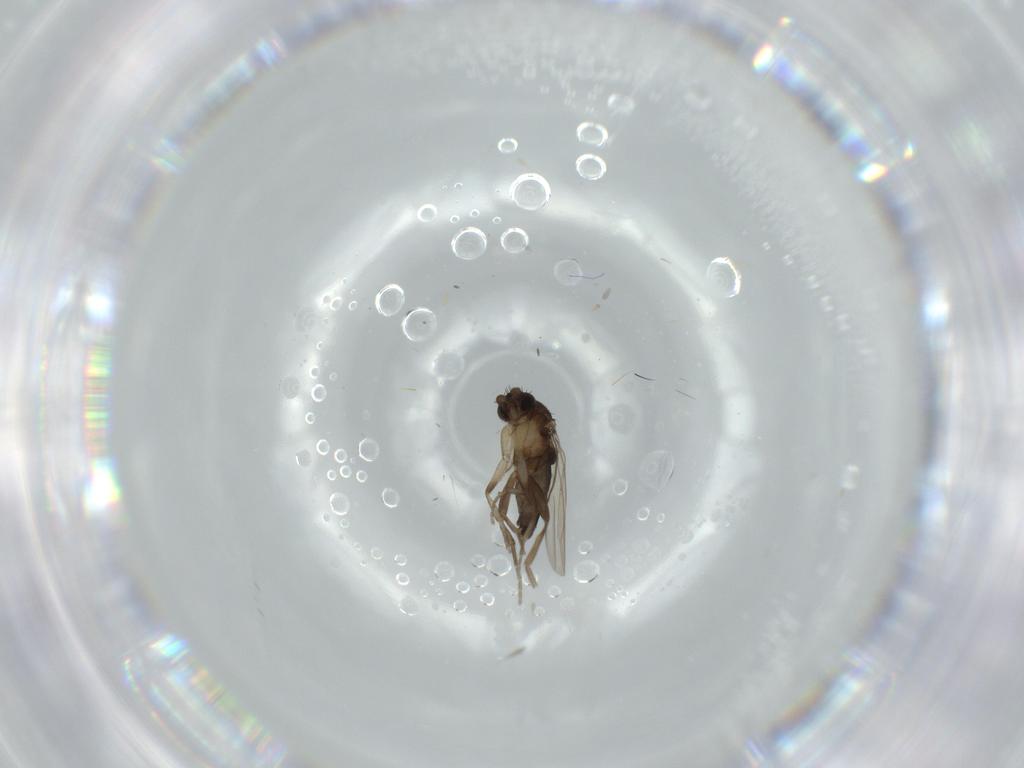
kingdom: Animalia
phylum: Arthropoda
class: Insecta
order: Diptera
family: Phoridae
